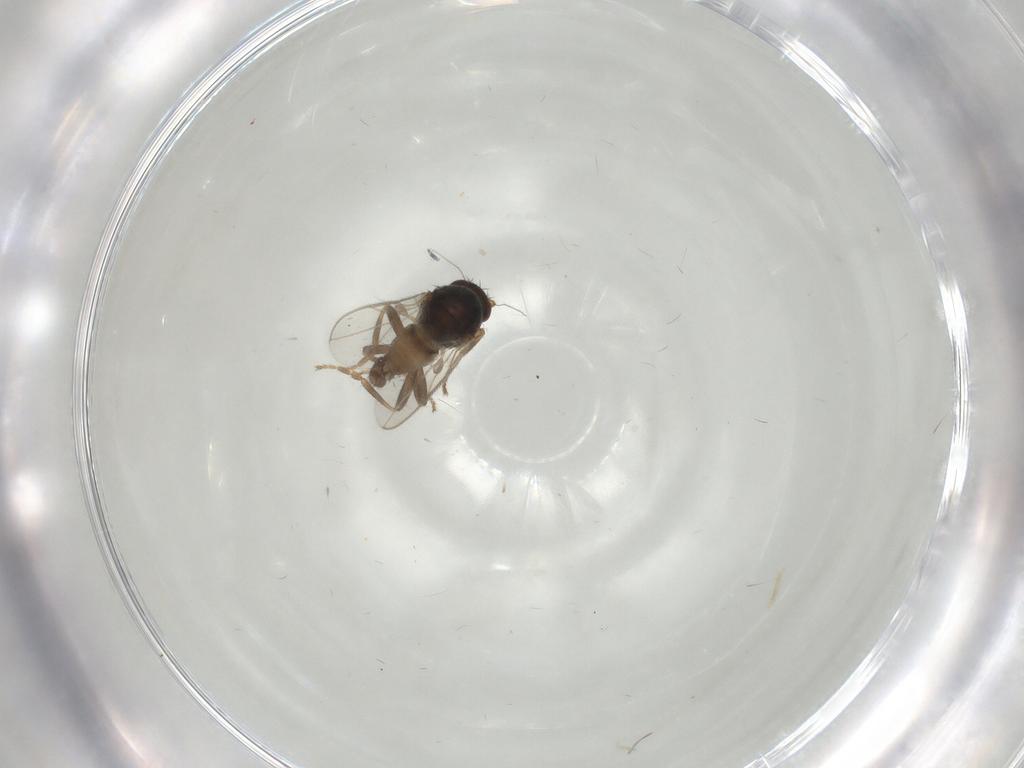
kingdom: Animalia
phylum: Arthropoda
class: Insecta
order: Diptera
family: Sphaeroceridae
